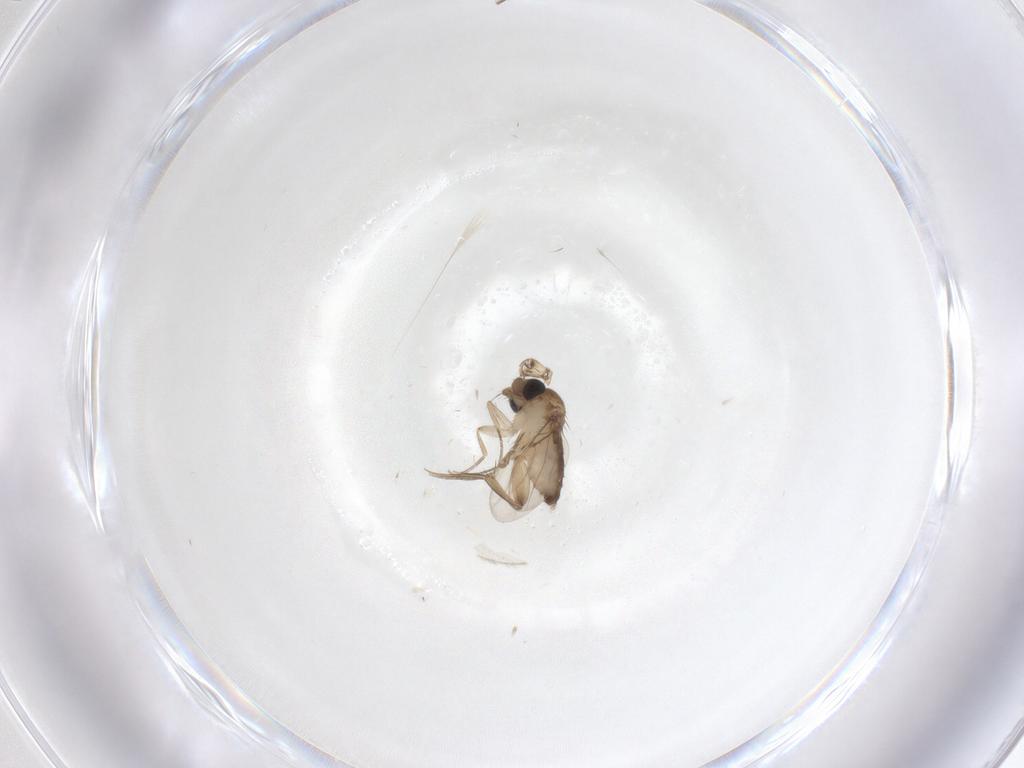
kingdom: Animalia
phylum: Arthropoda
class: Insecta
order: Diptera
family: Phoridae
